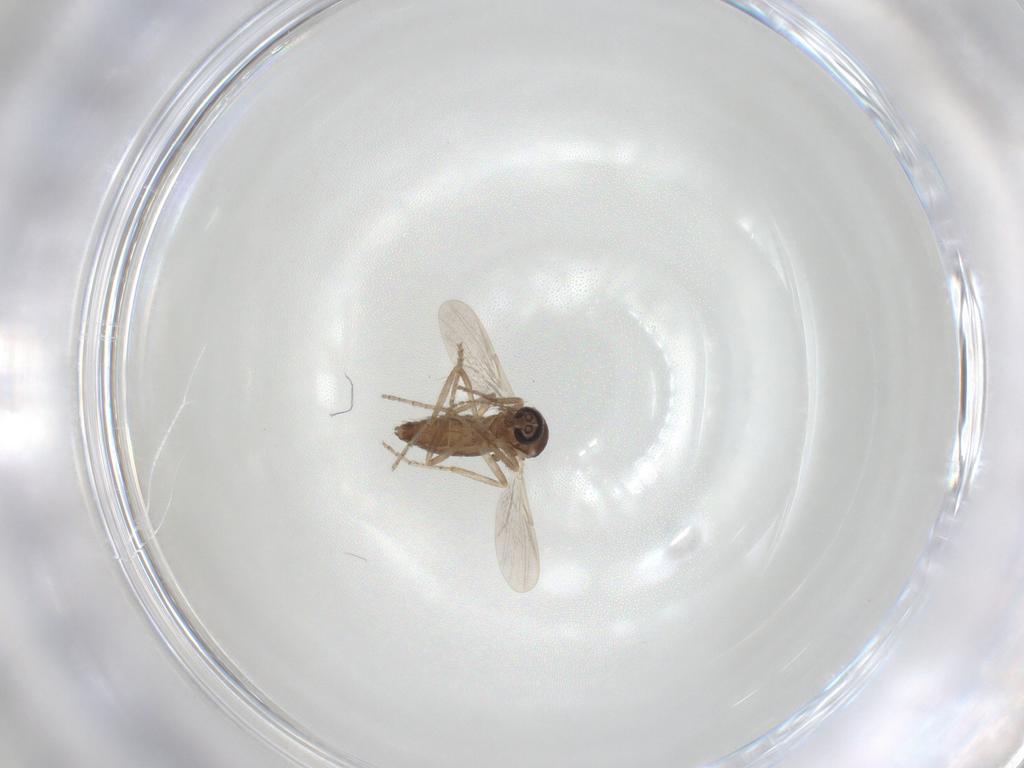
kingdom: Animalia
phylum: Arthropoda
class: Insecta
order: Diptera
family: Ceratopogonidae
